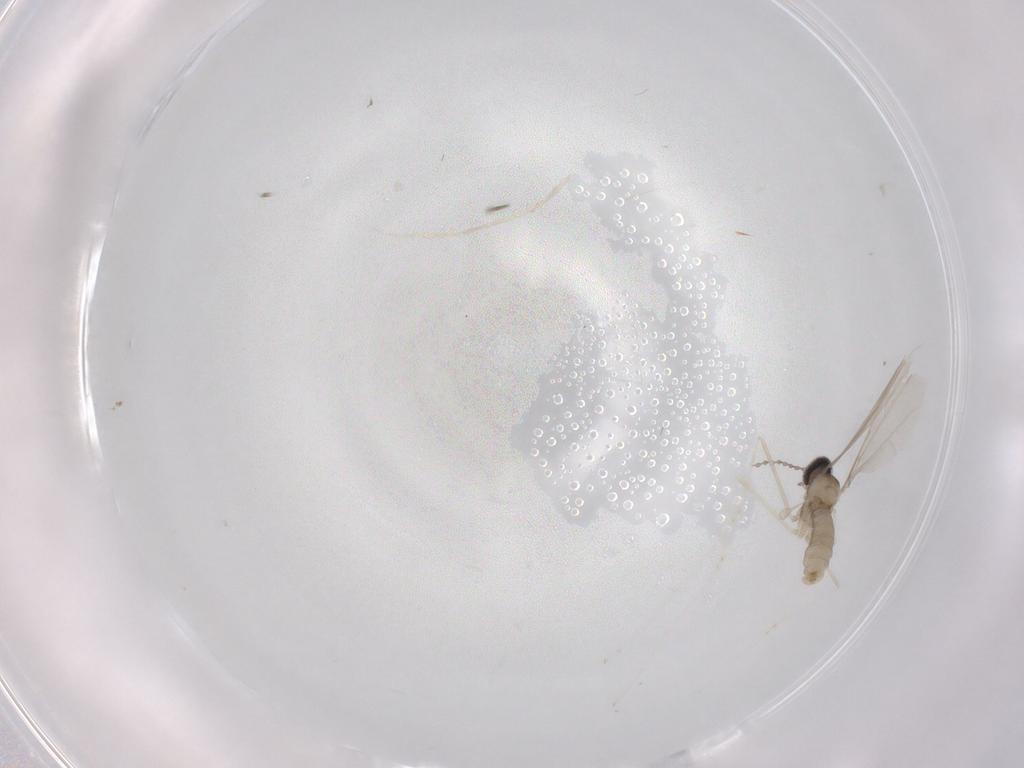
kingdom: Animalia
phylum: Arthropoda
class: Insecta
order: Diptera
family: Cecidomyiidae
